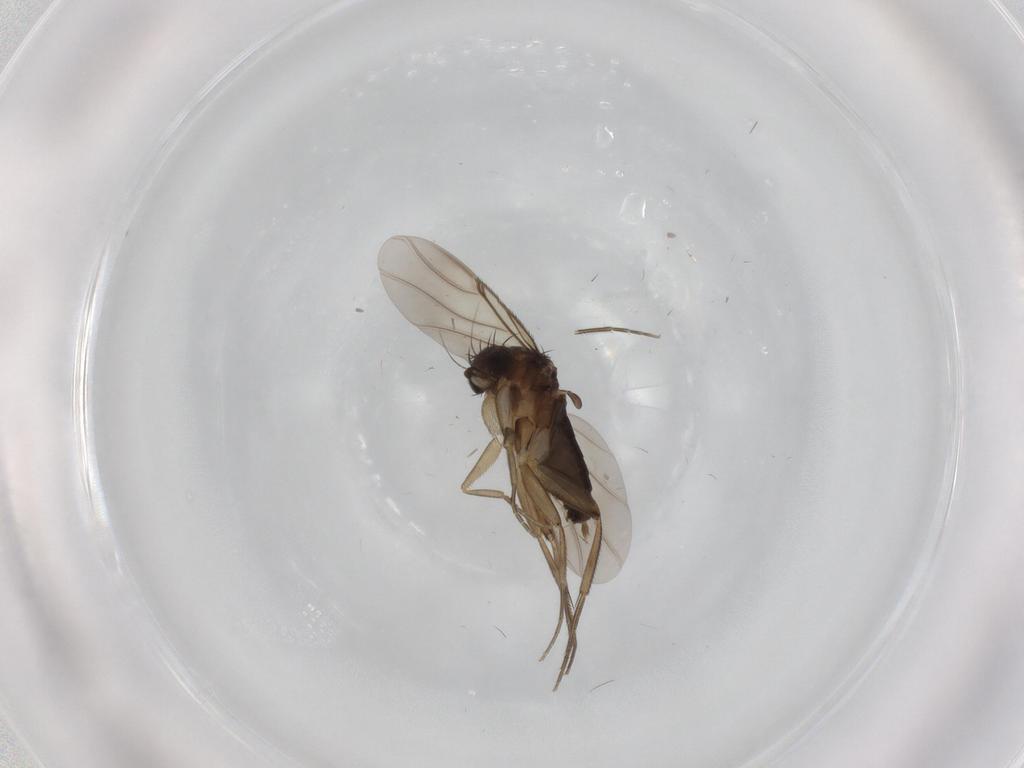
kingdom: Animalia
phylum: Arthropoda
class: Insecta
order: Diptera
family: Phoridae
